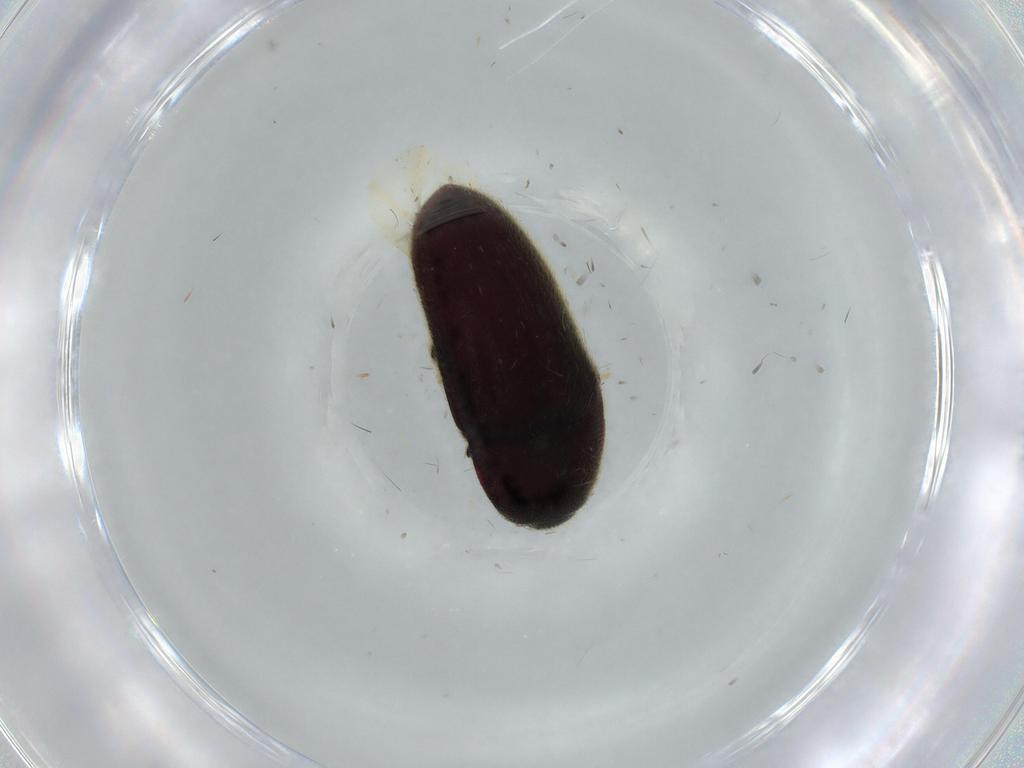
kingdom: Animalia
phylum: Arthropoda
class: Insecta
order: Coleoptera
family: Throscidae
